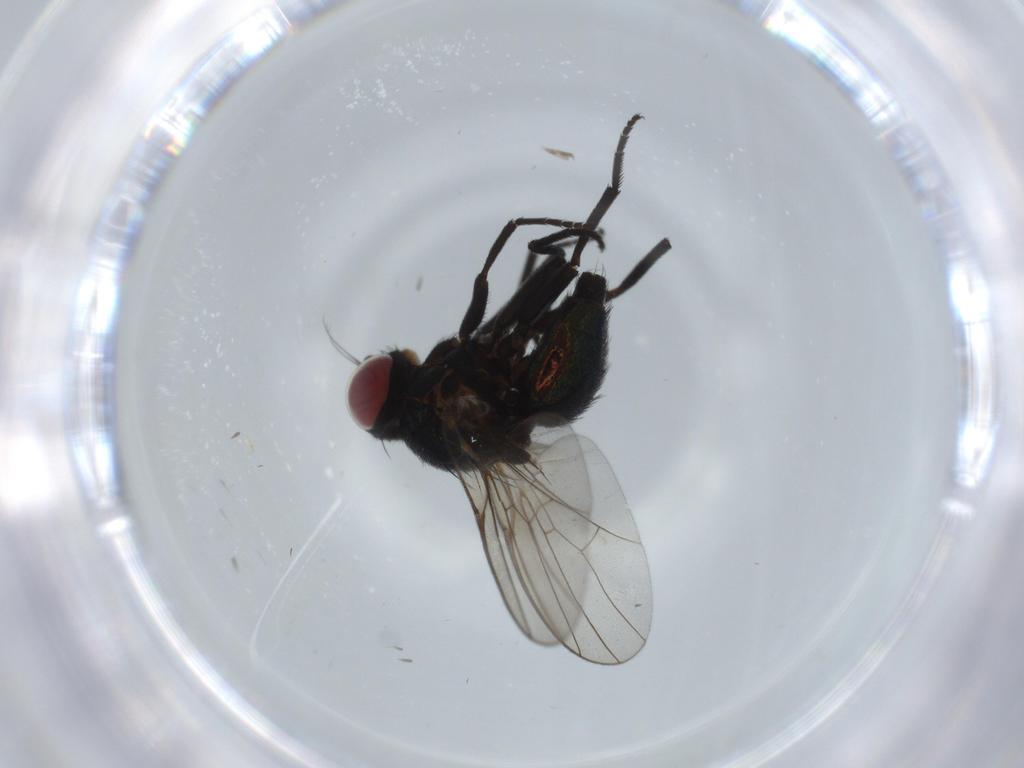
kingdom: Animalia
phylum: Arthropoda
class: Insecta
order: Diptera
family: Agromyzidae
